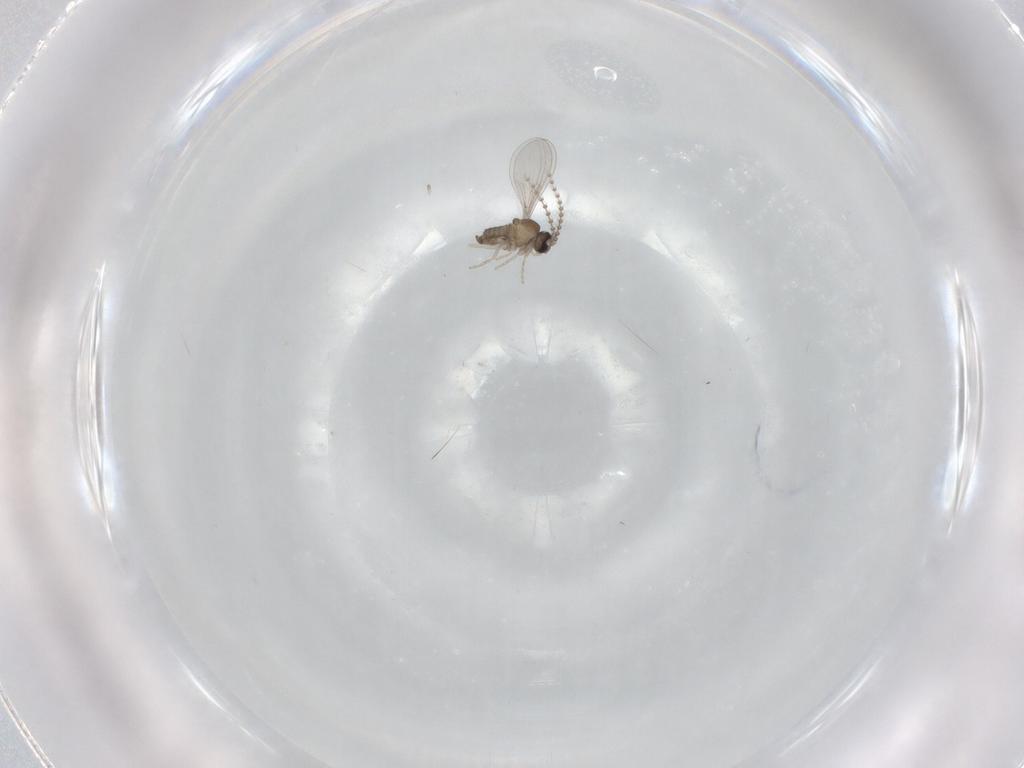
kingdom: Animalia
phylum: Arthropoda
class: Insecta
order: Diptera
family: Cecidomyiidae
